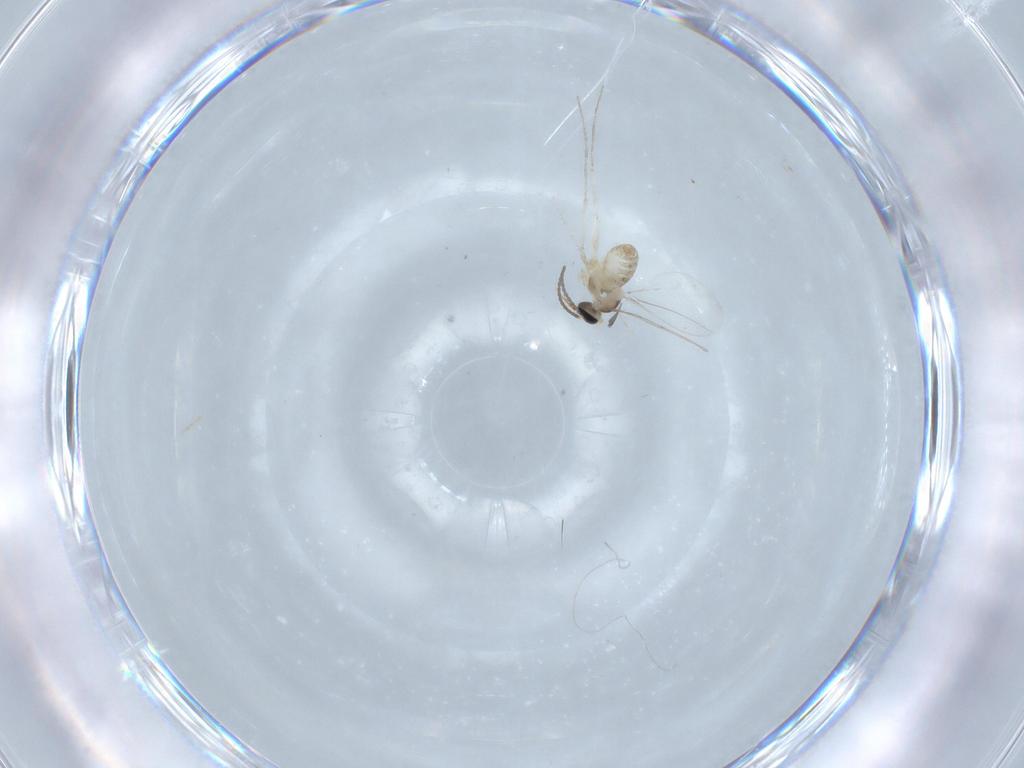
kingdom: Animalia
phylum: Arthropoda
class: Insecta
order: Diptera
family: Cecidomyiidae
